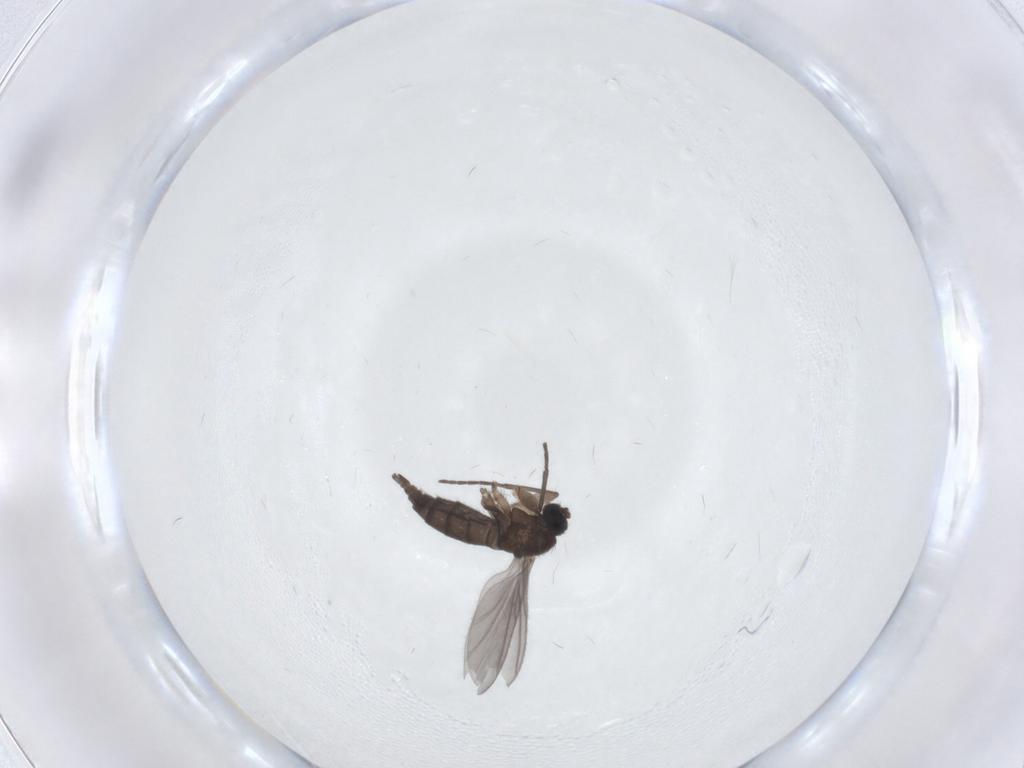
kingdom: Animalia
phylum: Arthropoda
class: Insecta
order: Diptera
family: Sciaridae
